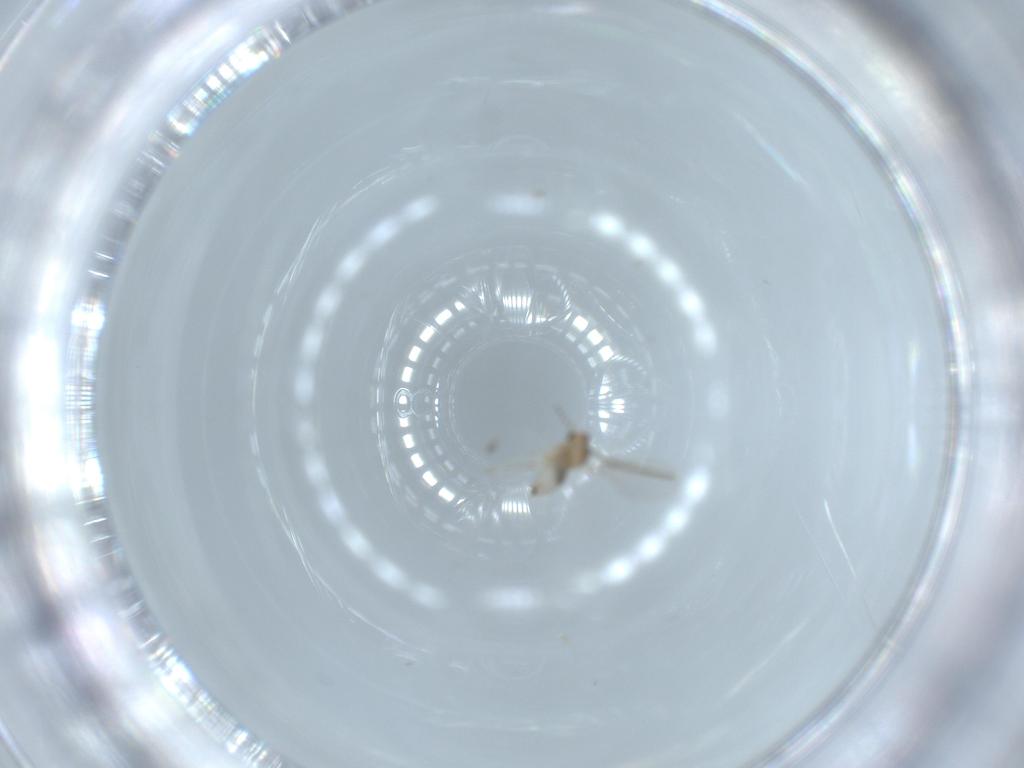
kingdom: Animalia
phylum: Arthropoda
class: Insecta
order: Diptera
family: Sciaridae
